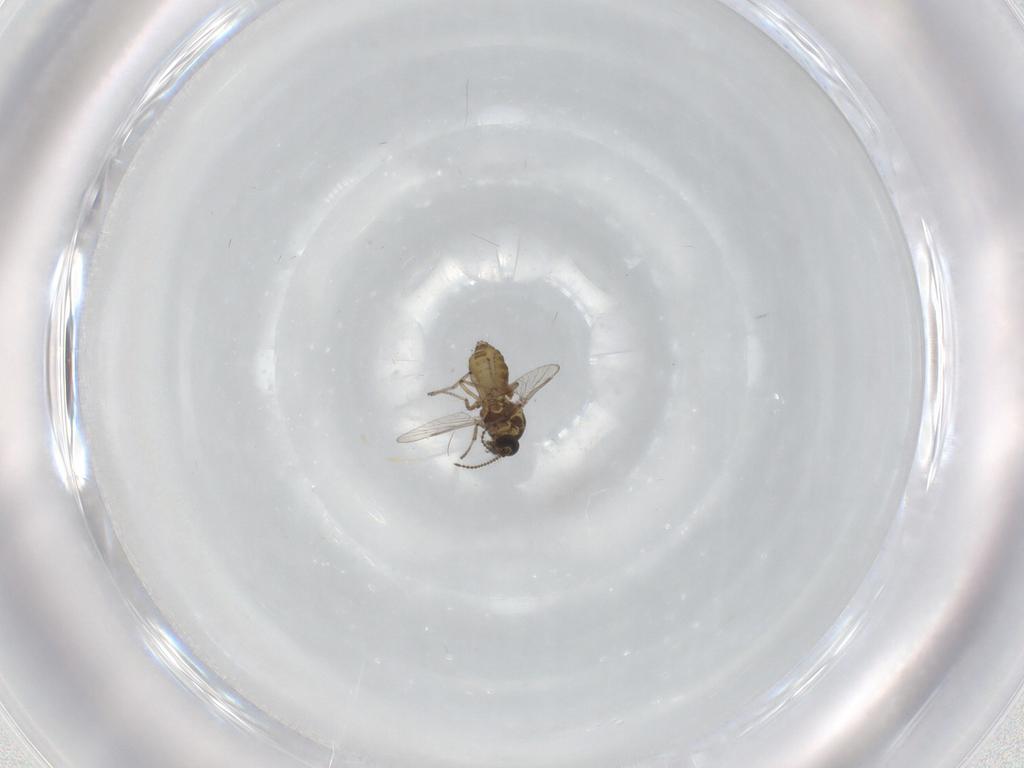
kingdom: Animalia
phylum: Arthropoda
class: Insecta
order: Diptera
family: Ceratopogonidae
